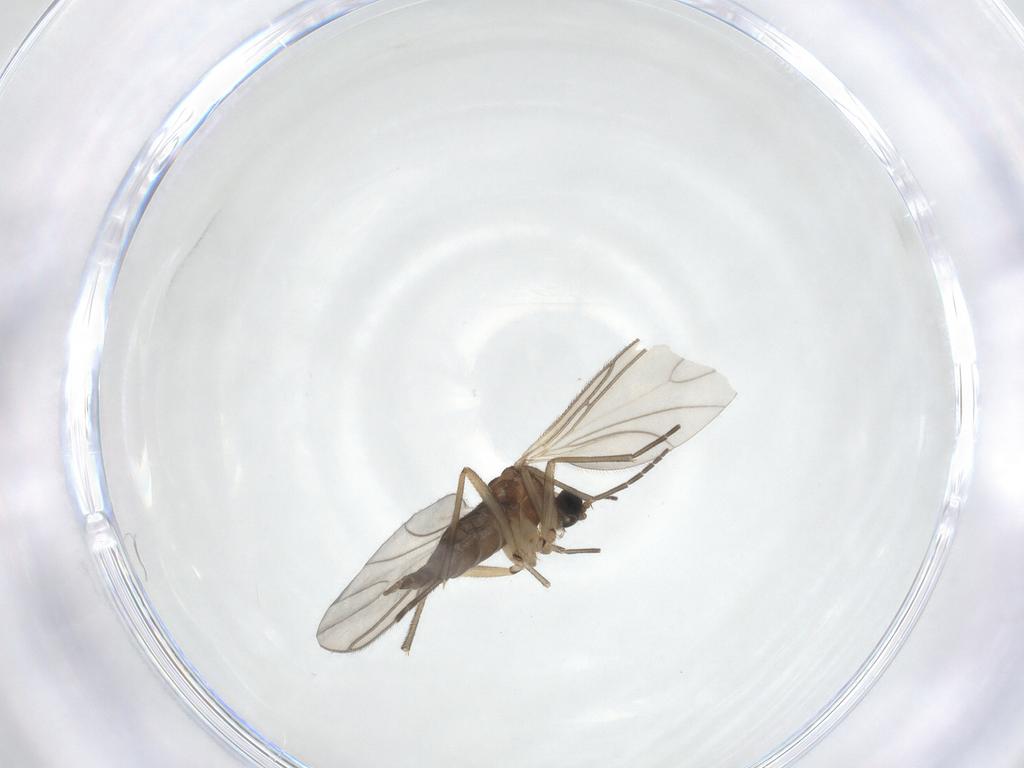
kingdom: Animalia
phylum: Arthropoda
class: Insecta
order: Diptera
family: Sciaridae
